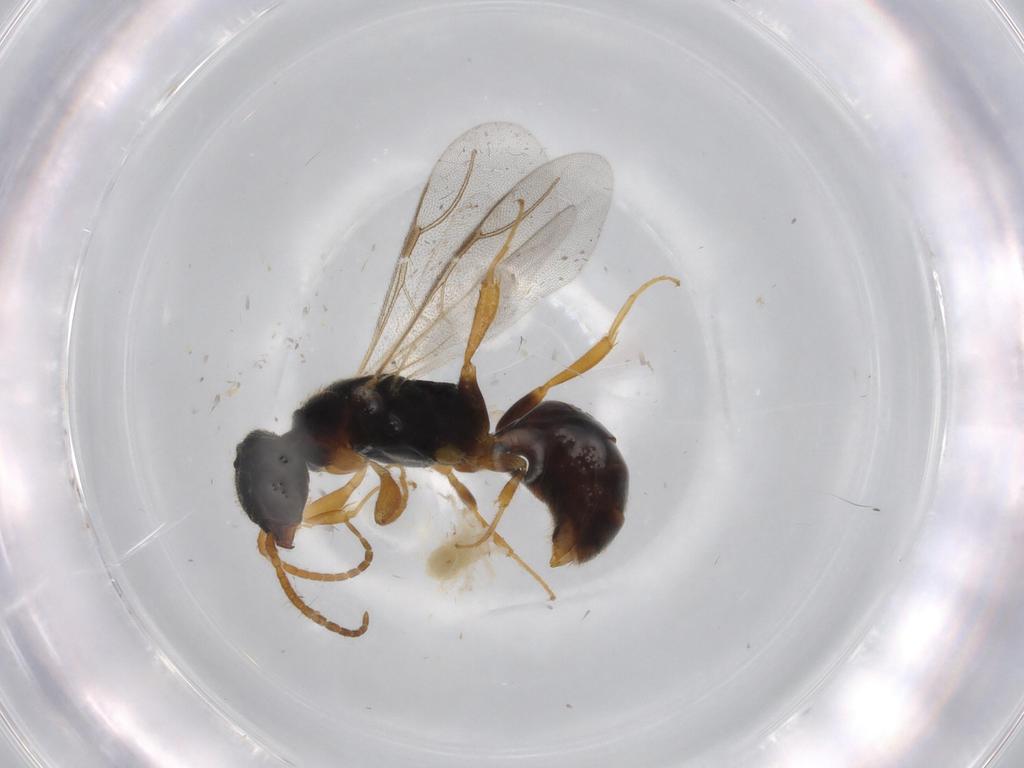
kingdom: Animalia
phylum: Arthropoda
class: Insecta
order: Hymenoptera
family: Bethylidae
